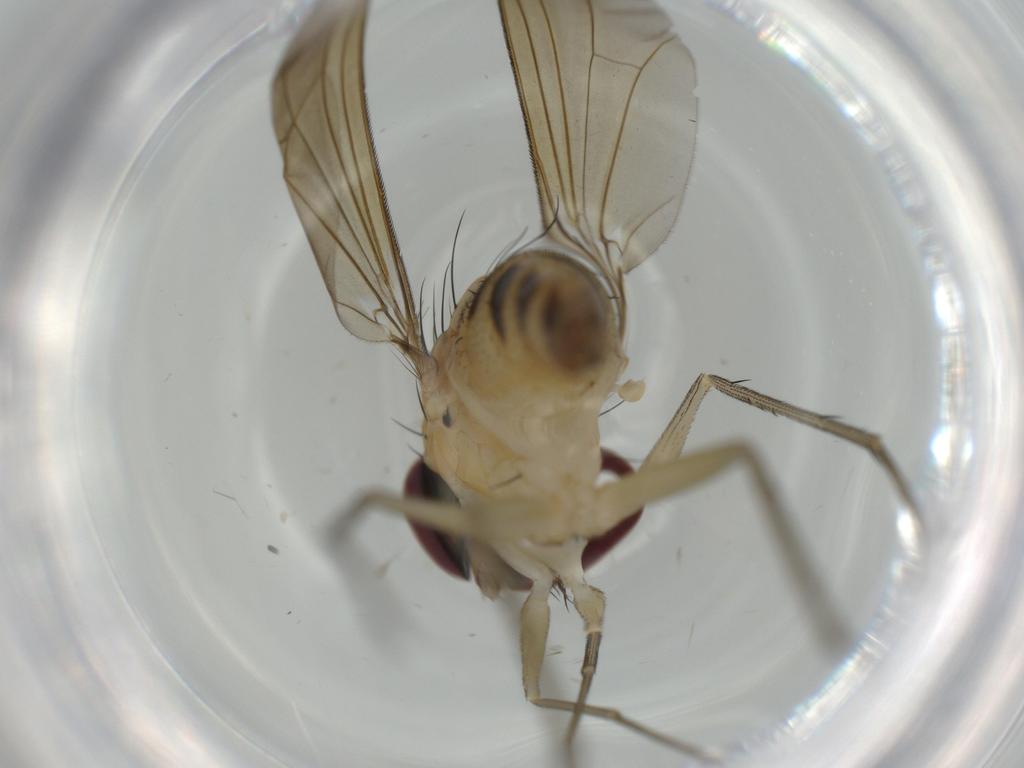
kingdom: Animalia
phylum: Arthropoda
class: Insecta
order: Diptera
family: Dolichopodidae
